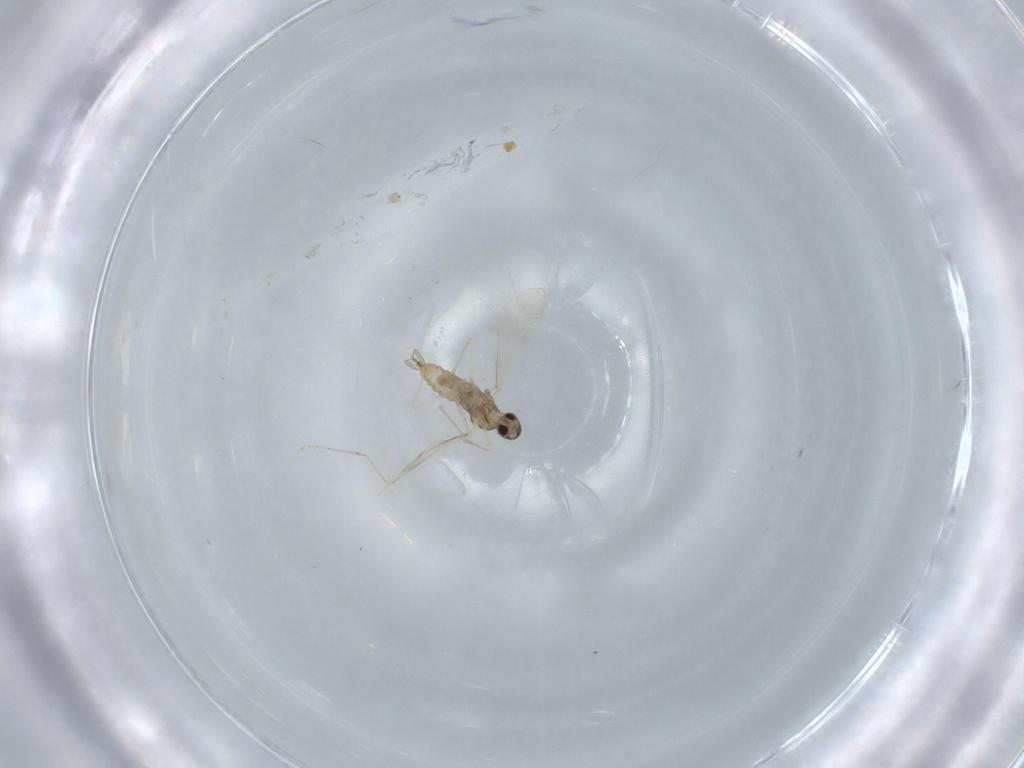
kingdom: Animalia
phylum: Arthropoda
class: Insecta
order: Diptera
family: Cecidomyiidae
